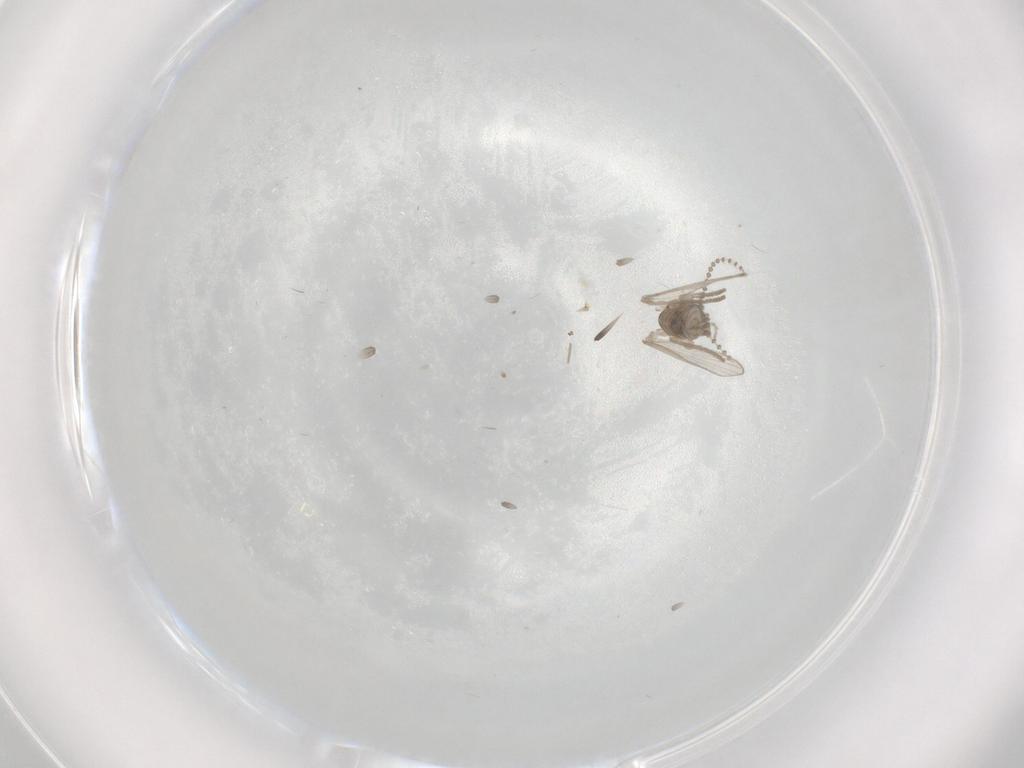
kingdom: Animalia
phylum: Arthropoda
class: Insecta
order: Diptera
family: Psychodidae
